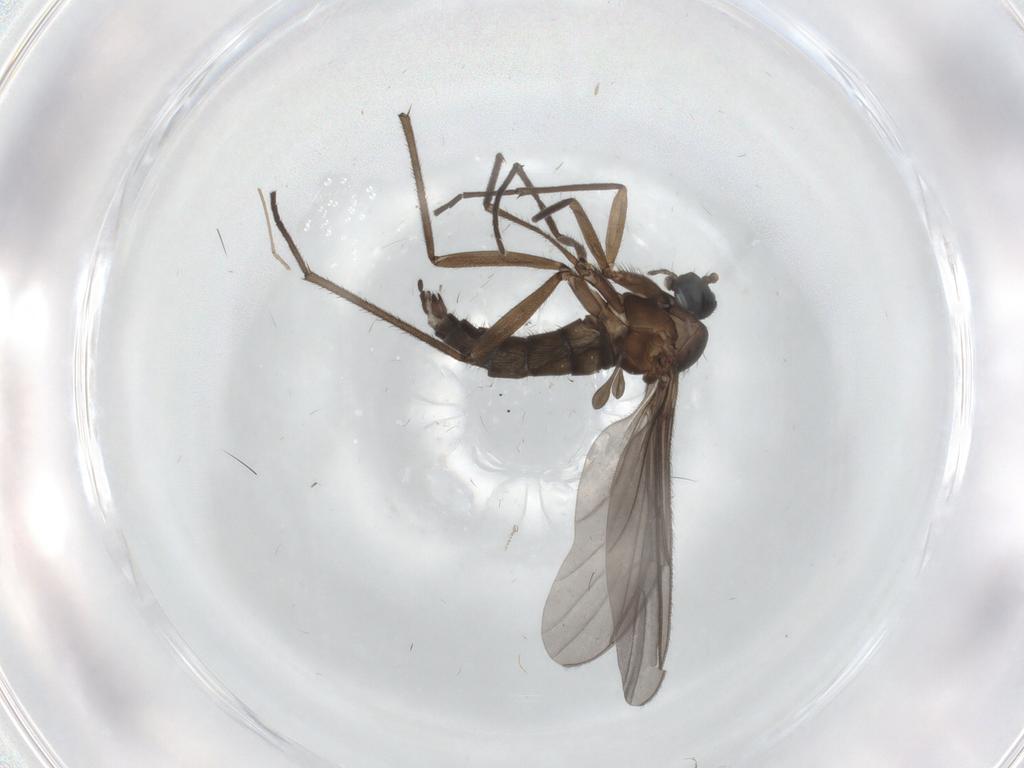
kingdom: Animalia
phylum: Arthropoda
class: Insecta
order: Diptera
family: Sciaridae
